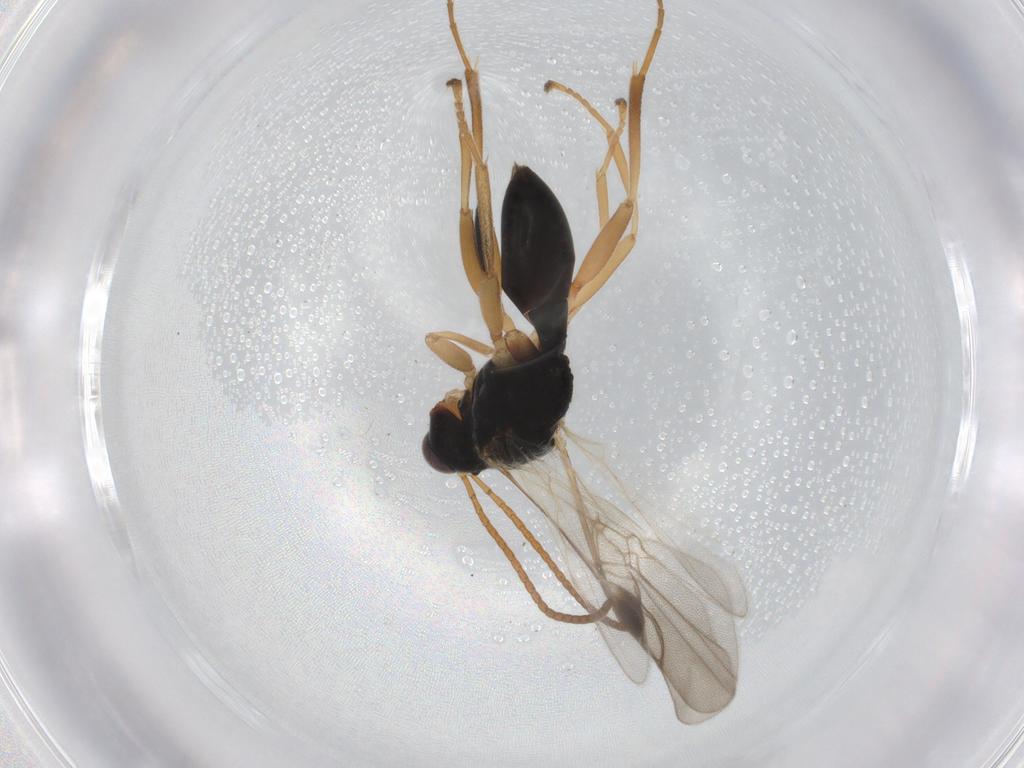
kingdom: Animalia
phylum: Arthropoda
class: Insecta
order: Hymenoptera
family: Braconidae
